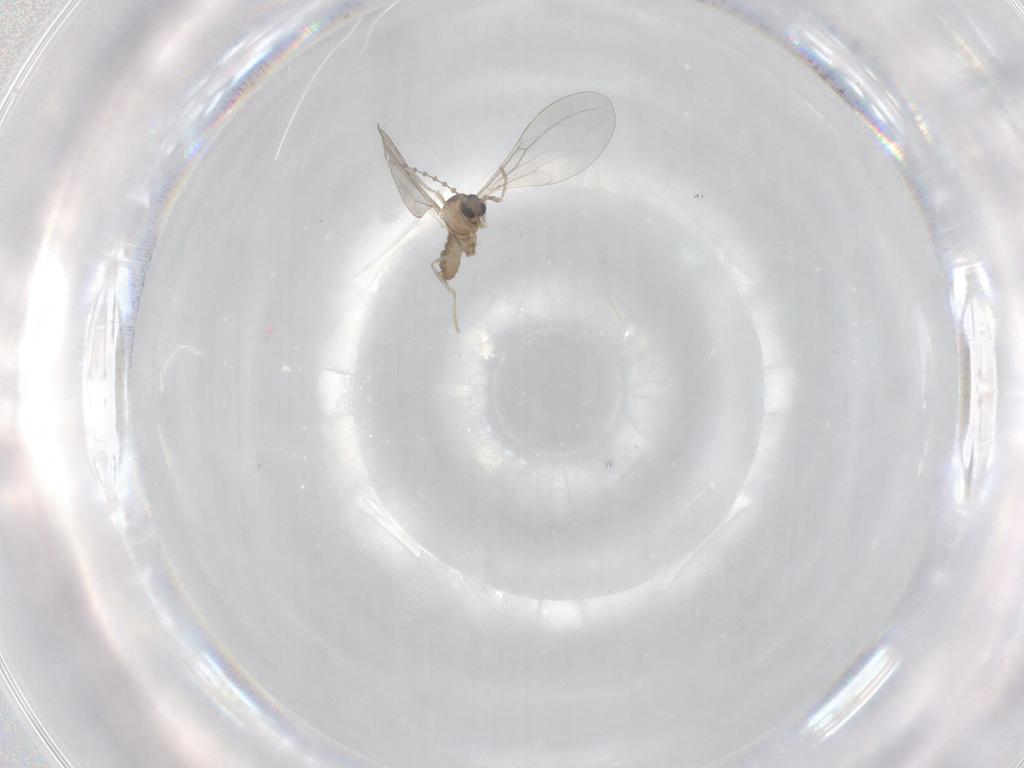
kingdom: Animalia
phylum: Arthropoda
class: Insecta
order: Diptera
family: Cecidomyiidae
